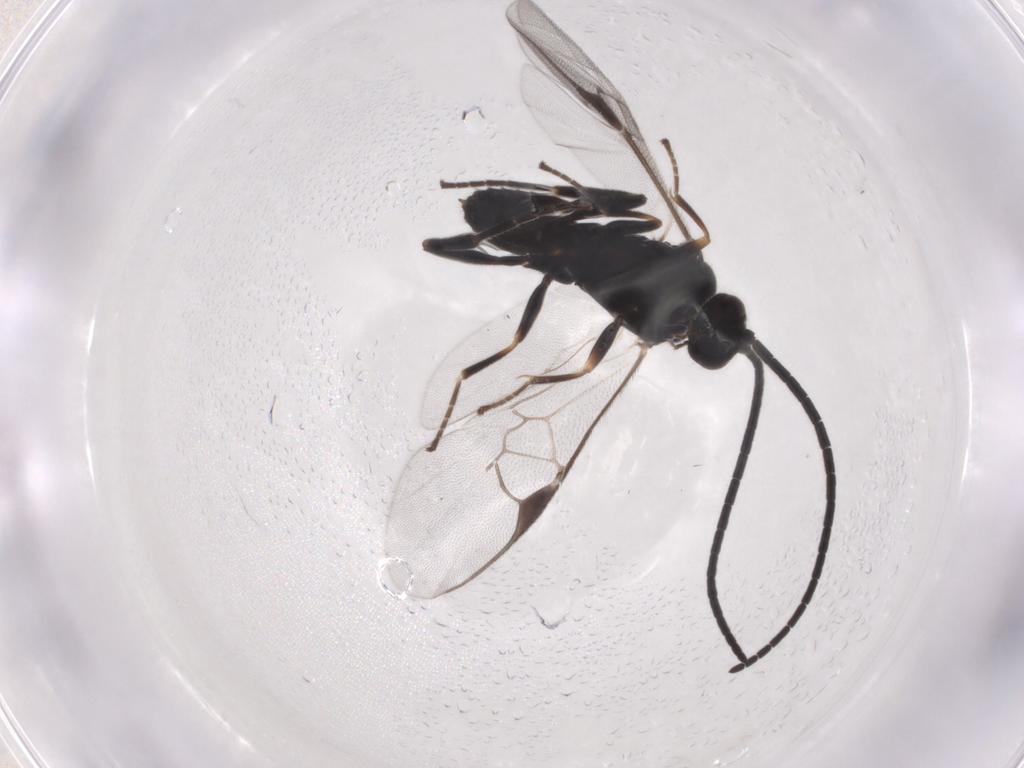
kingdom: Animalia
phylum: Arthropoda
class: Insecta
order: Hymenoptera
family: Braconidae
